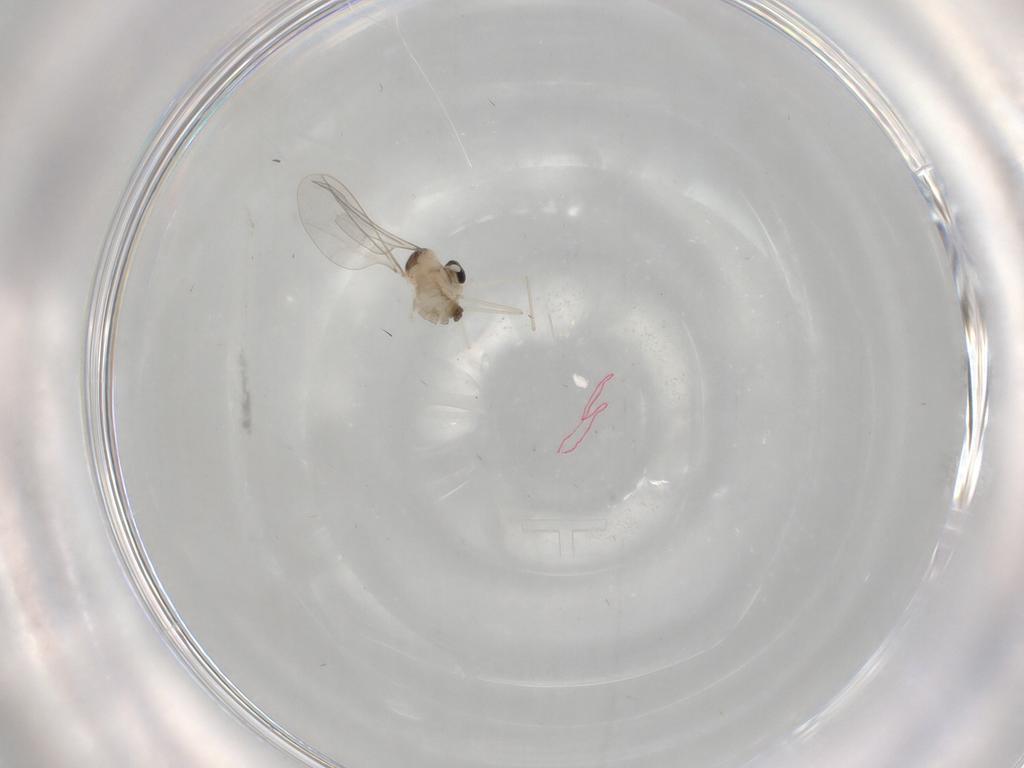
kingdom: Animalia
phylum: Arthropoda
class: Insecta
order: Diptera
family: Cecidomyiidae
